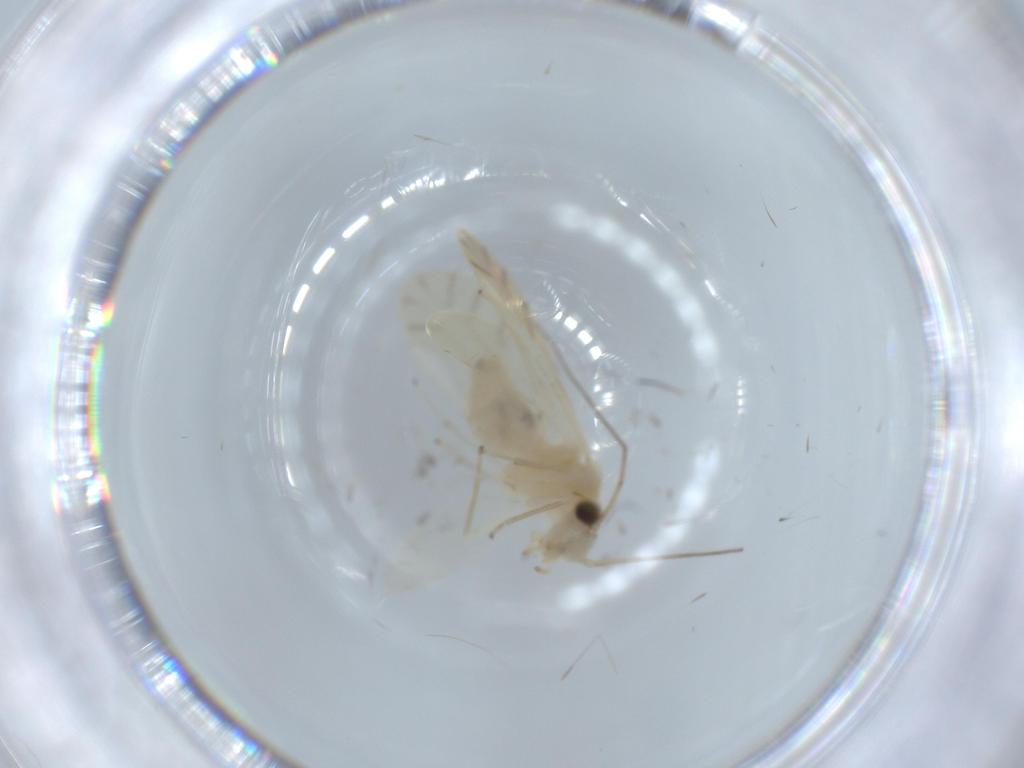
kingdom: Animalia
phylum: Arthropoda
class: Insecta
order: Psocodea
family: Caeciliusidae
